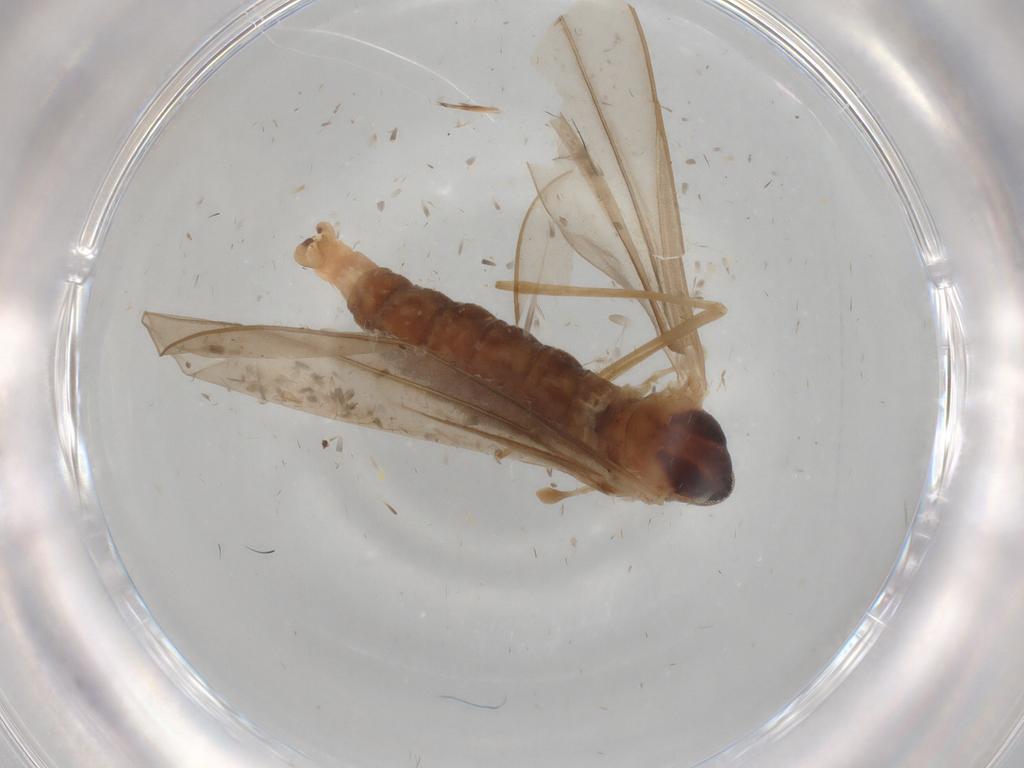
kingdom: Animalia
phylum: Arthropoda
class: Insecta
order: Diptera
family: Cecidomyiidae
